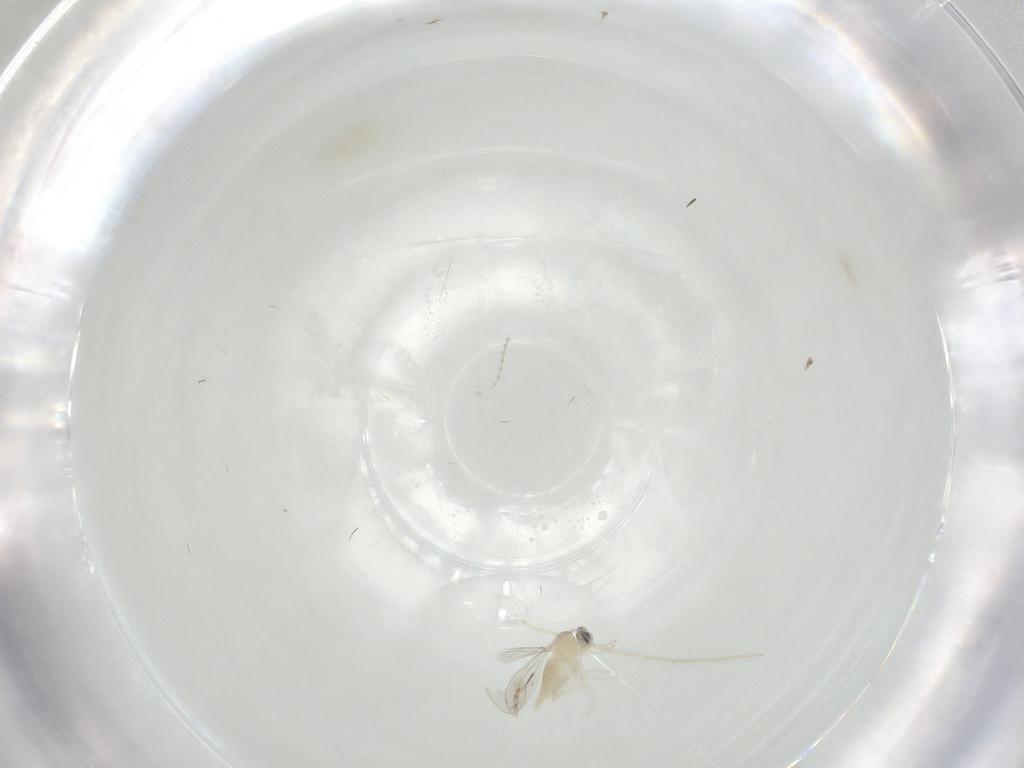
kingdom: Animalia
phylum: Arthropoda
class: Insecta
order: Diptera
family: Chironomidae
